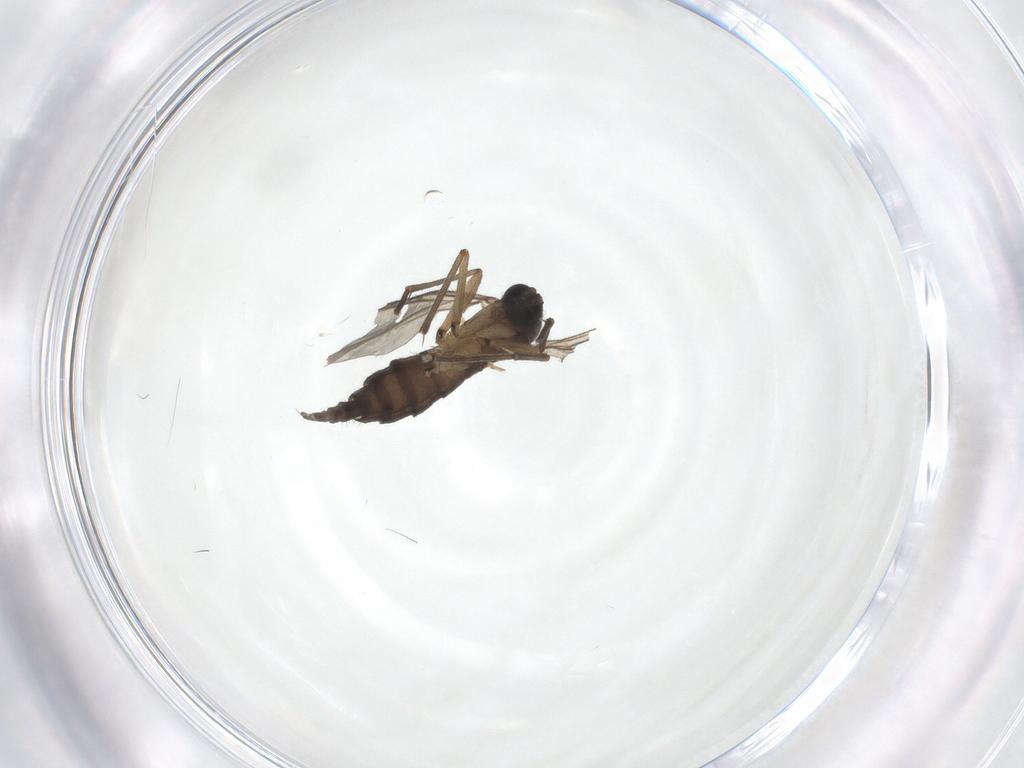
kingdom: Animalia
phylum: Arthropoda
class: Insecta
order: Diptera
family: Sciaridae
